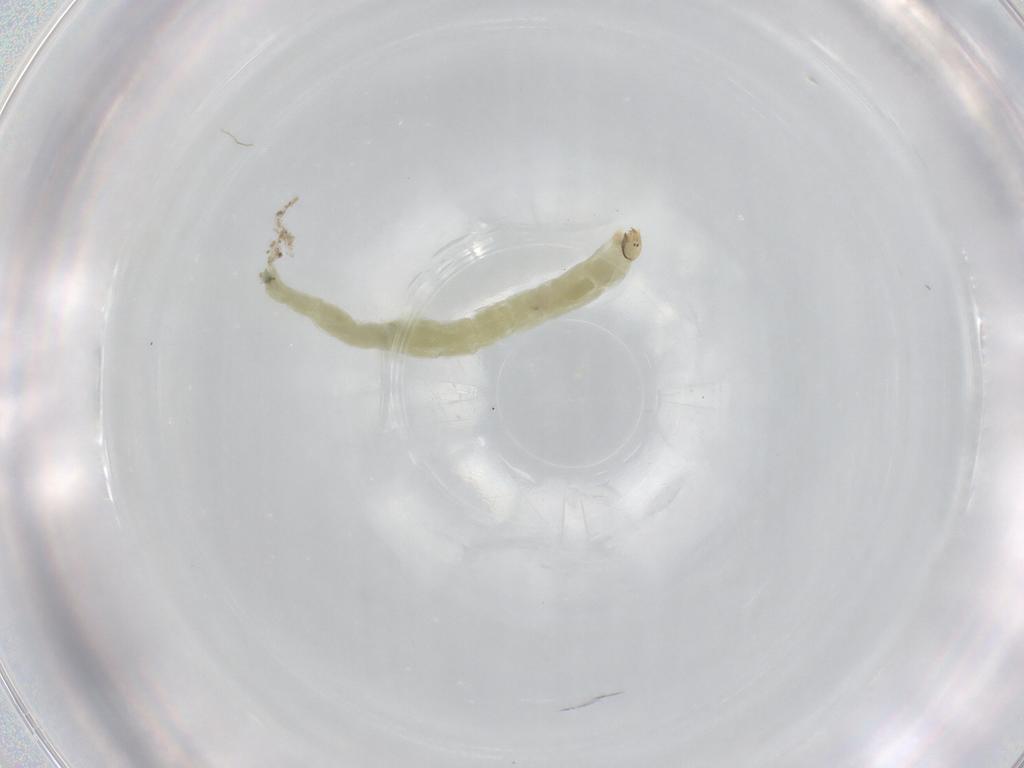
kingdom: Animalia
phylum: Arthropoda
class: Insecta
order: Diptera
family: Chironomidae
